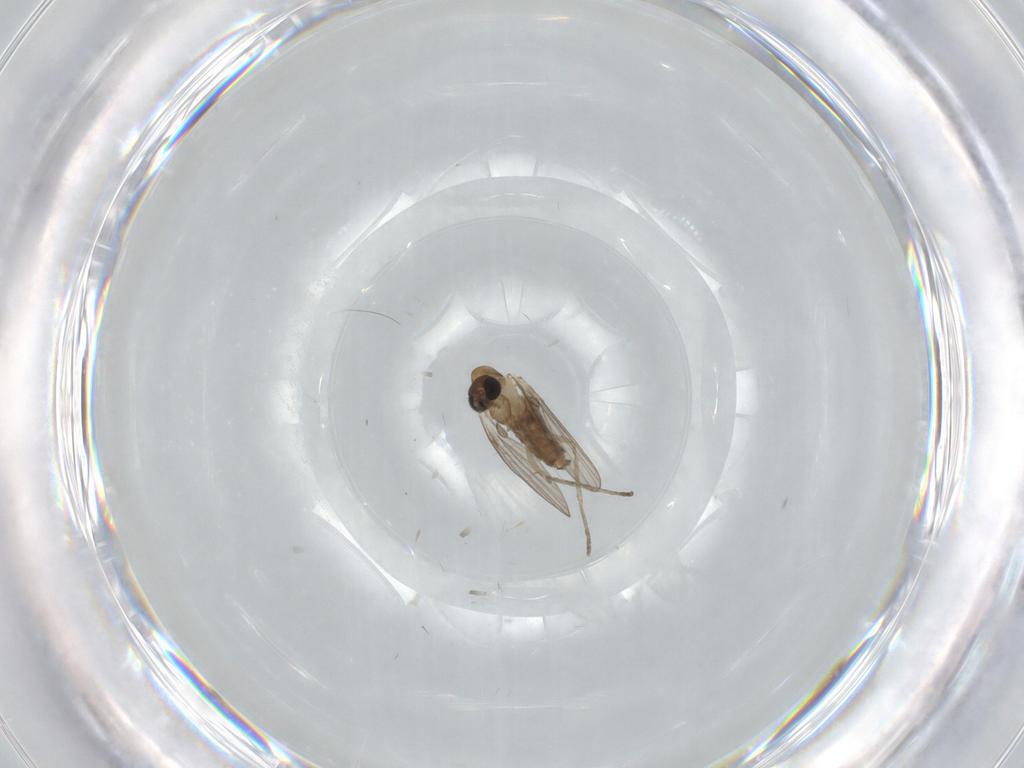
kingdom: Animalia
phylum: Arthropoda
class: Insecta
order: Diptera
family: Psychodidae
